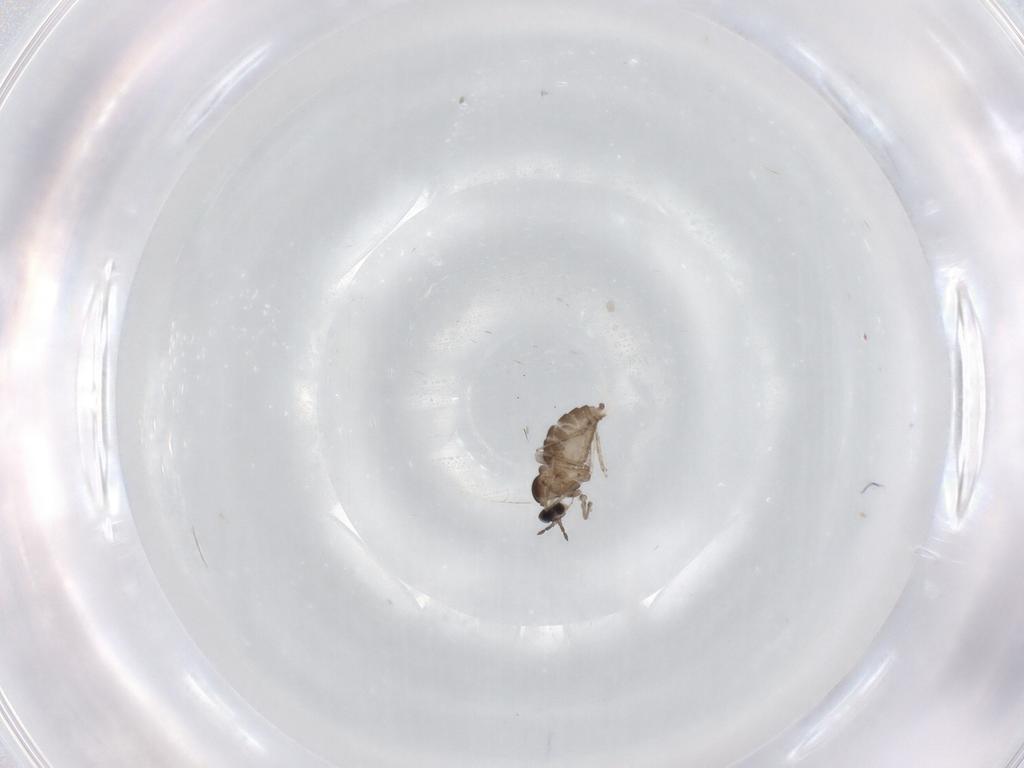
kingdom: Animalia
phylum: Arthropoda
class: Insecta
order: Diptera
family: Cecidomyiidae
